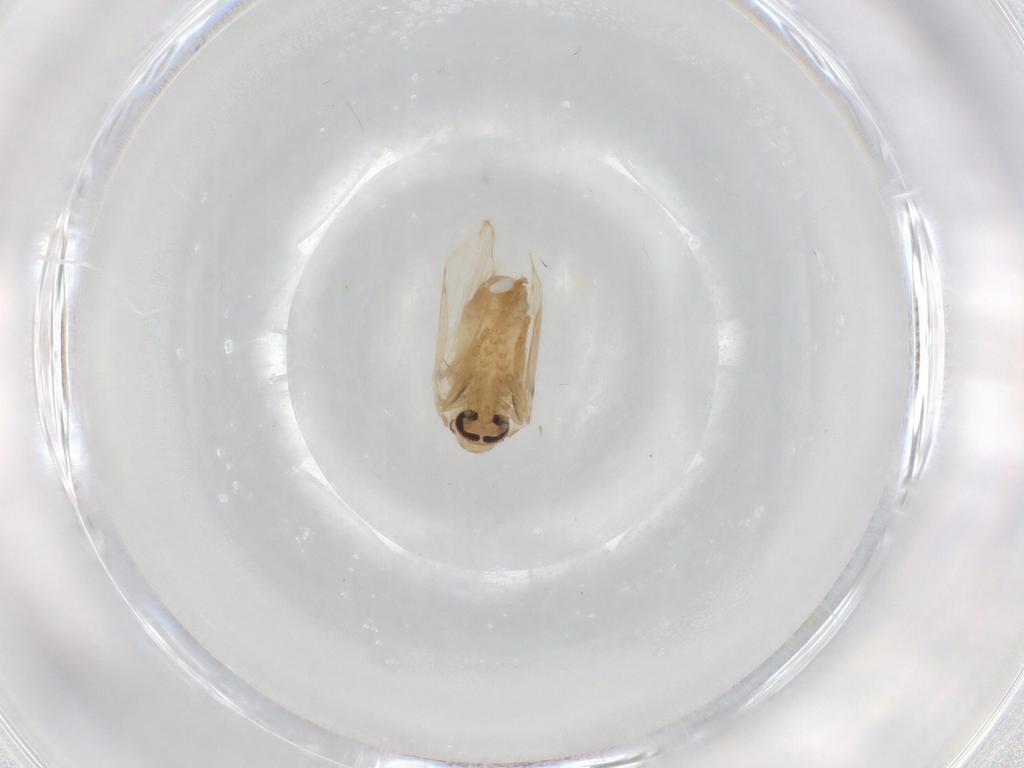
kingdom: Animalia
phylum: Arthropoda
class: Insecta
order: Diptera
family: Psychodidae
